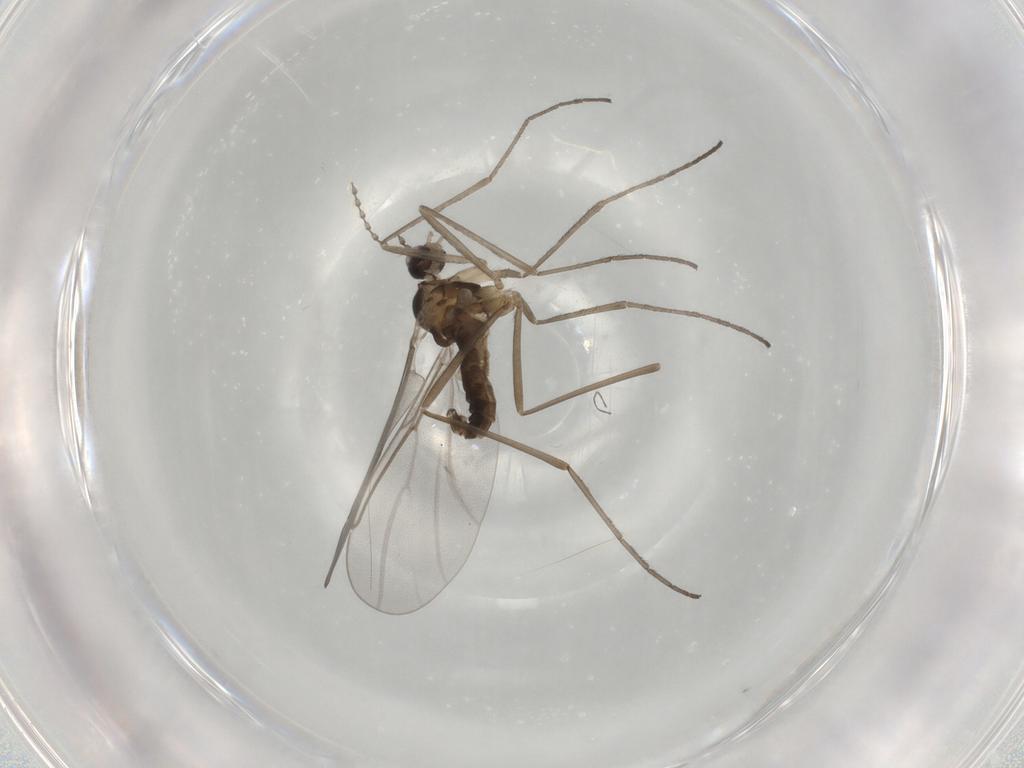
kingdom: Animalia
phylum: Arthropoda
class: Insecta
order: Diptera
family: Cecidomyiidae
